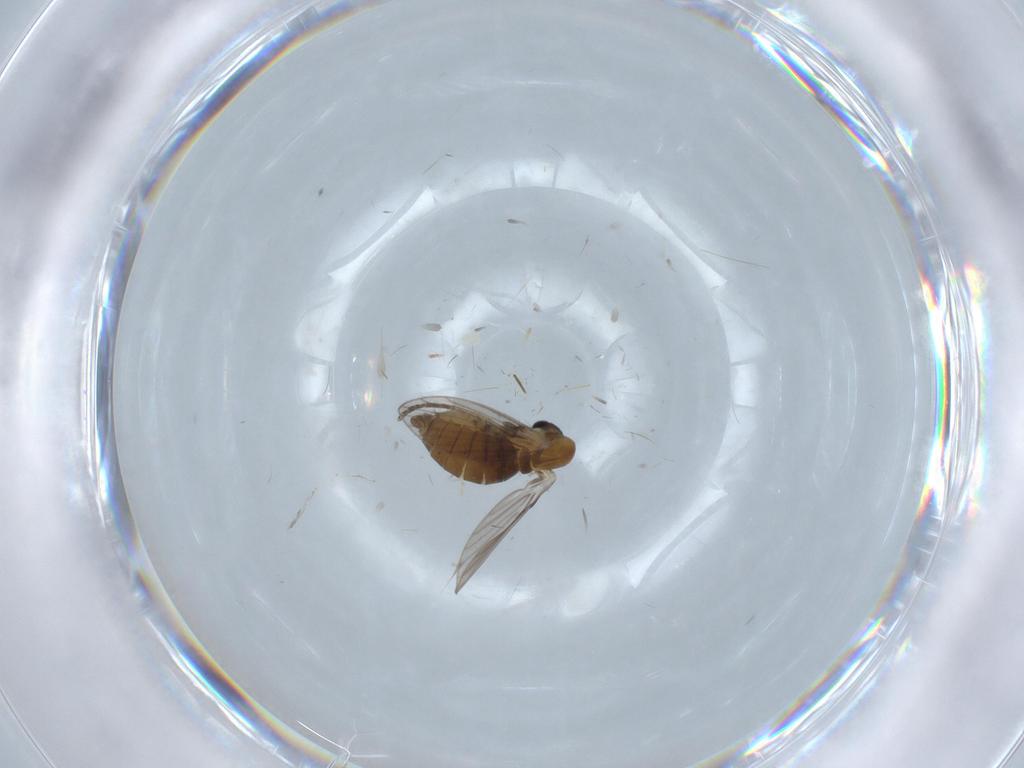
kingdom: Animalia
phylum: Arthropoda
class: Insecta
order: Diptera
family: Psychodidae
